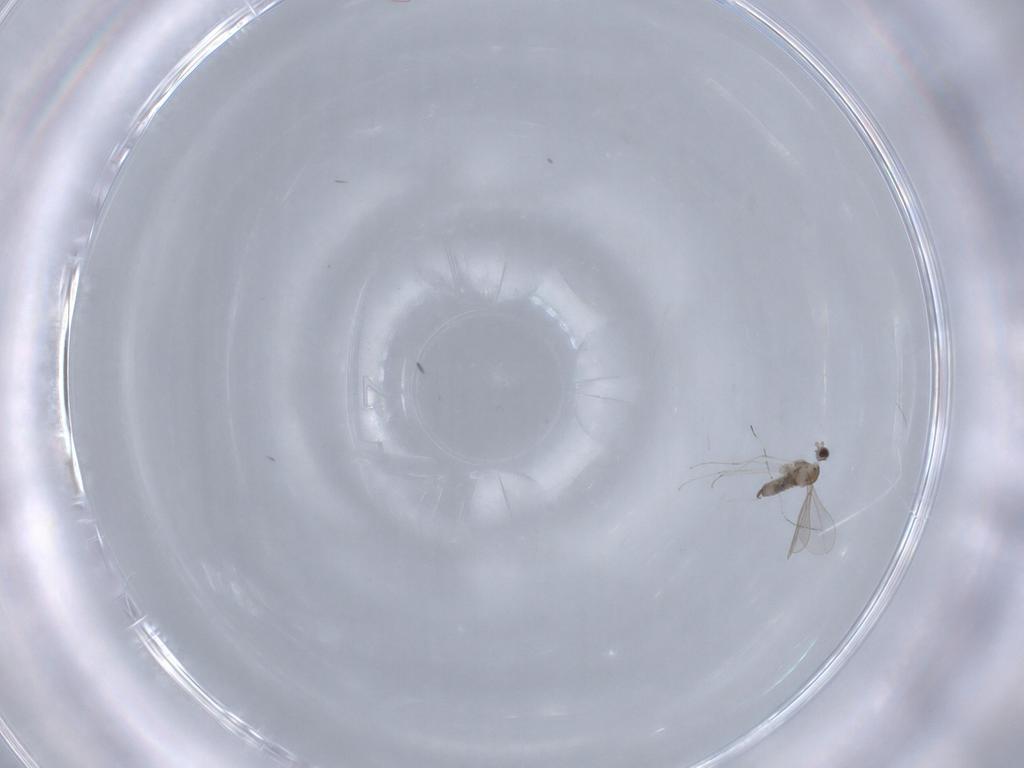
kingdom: Animalia
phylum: Arthropoda
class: Insecta
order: Diptera
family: Cecidomyiidae
